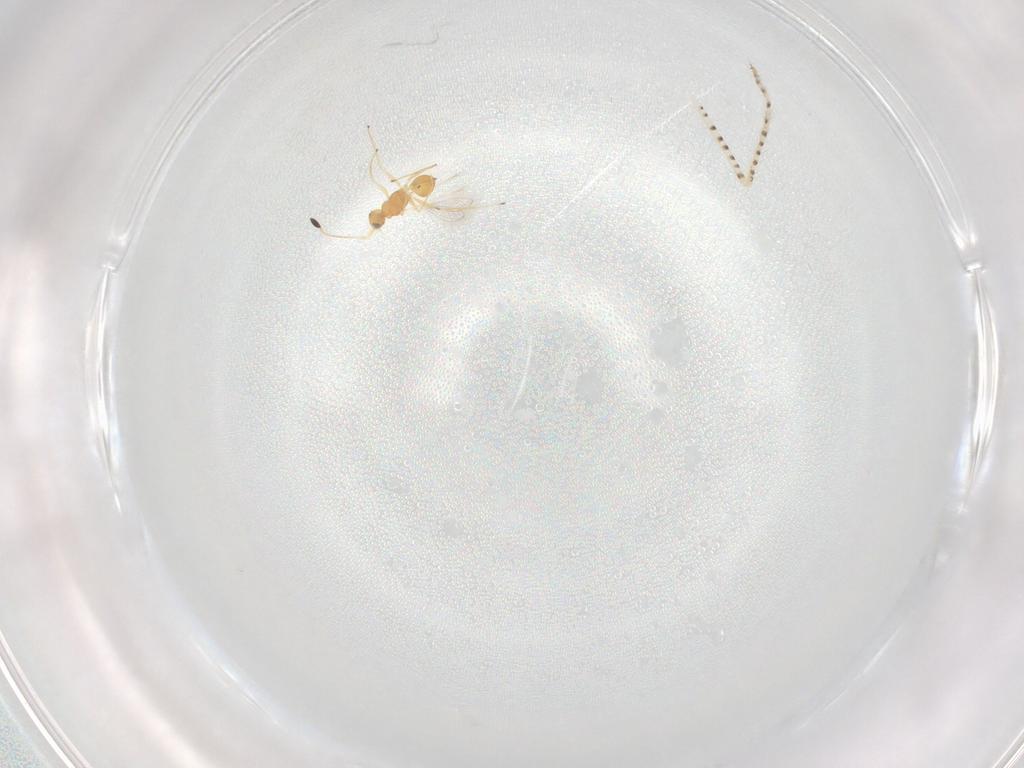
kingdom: Animalia
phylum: Arthropoda
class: Insecta
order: Hymenoptera
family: Mymaridae
